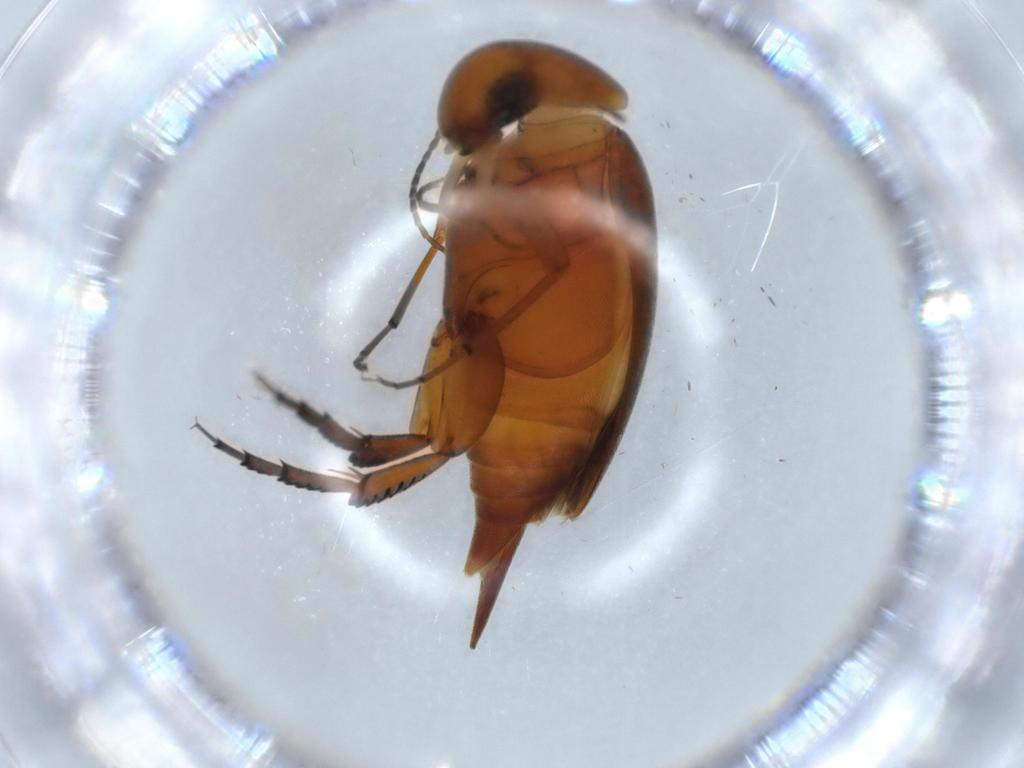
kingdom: Animalia
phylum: Arthropoda
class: Insecta
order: Coleoptera
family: Mordellidae
